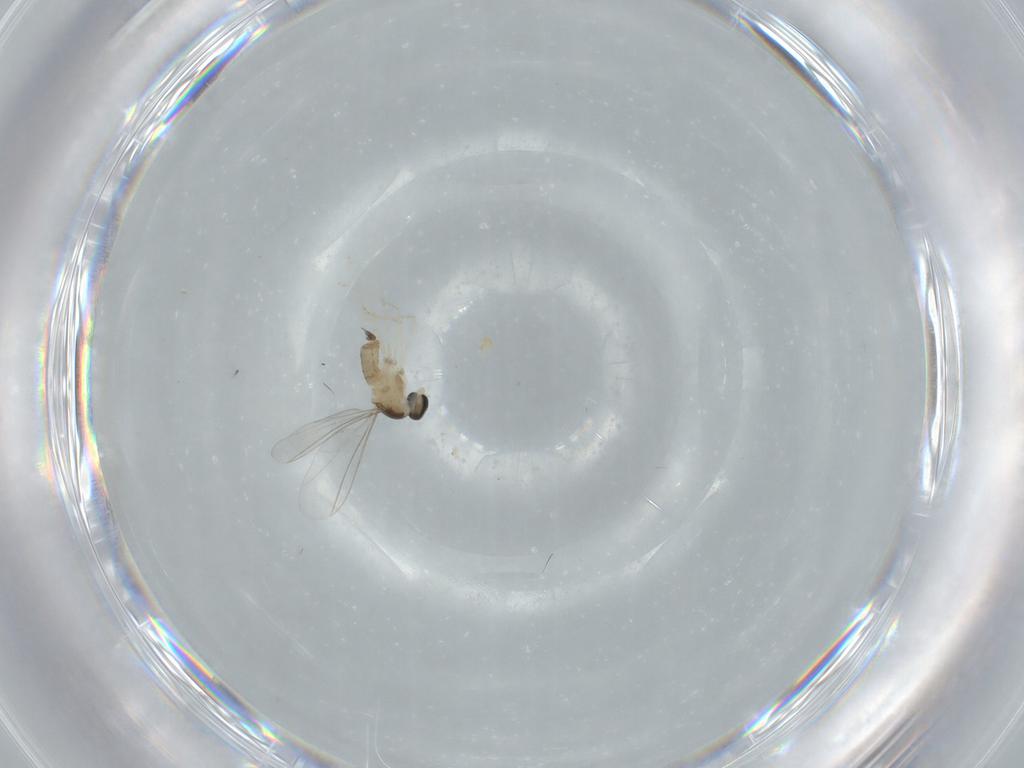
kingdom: Animalia
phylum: Arthropoda
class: Insecta
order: Diptera
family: Cecidomyiidae
